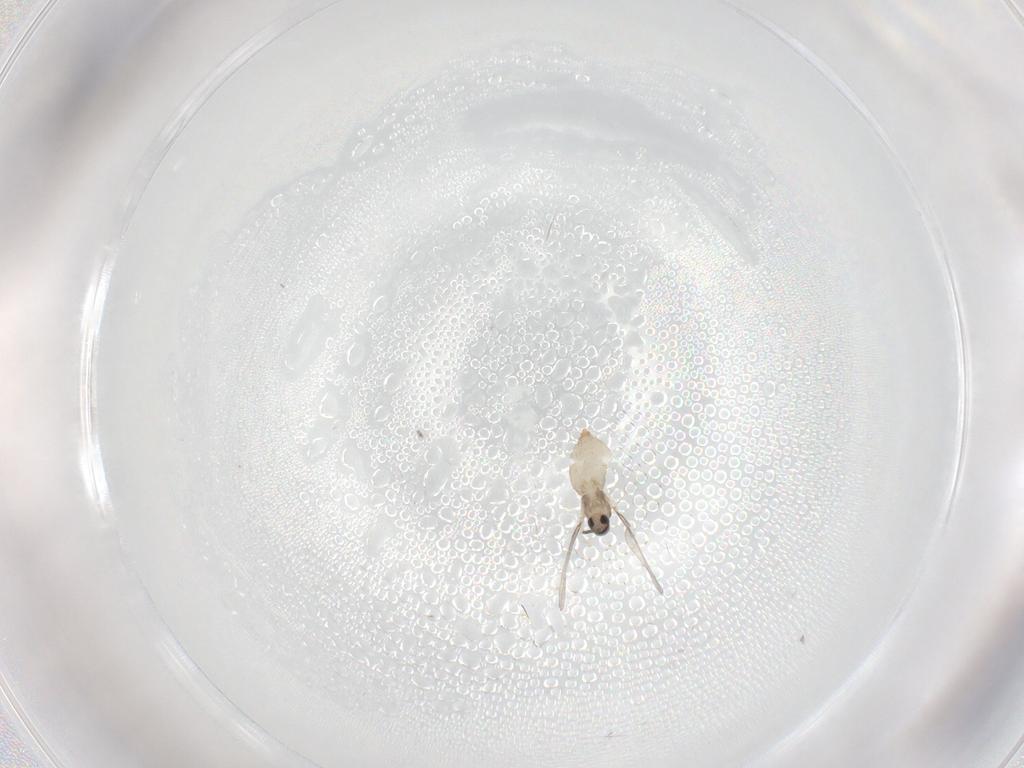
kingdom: Animalia
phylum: Arthropoda
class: Insecta
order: Diptera
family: Cecidomyiidae
